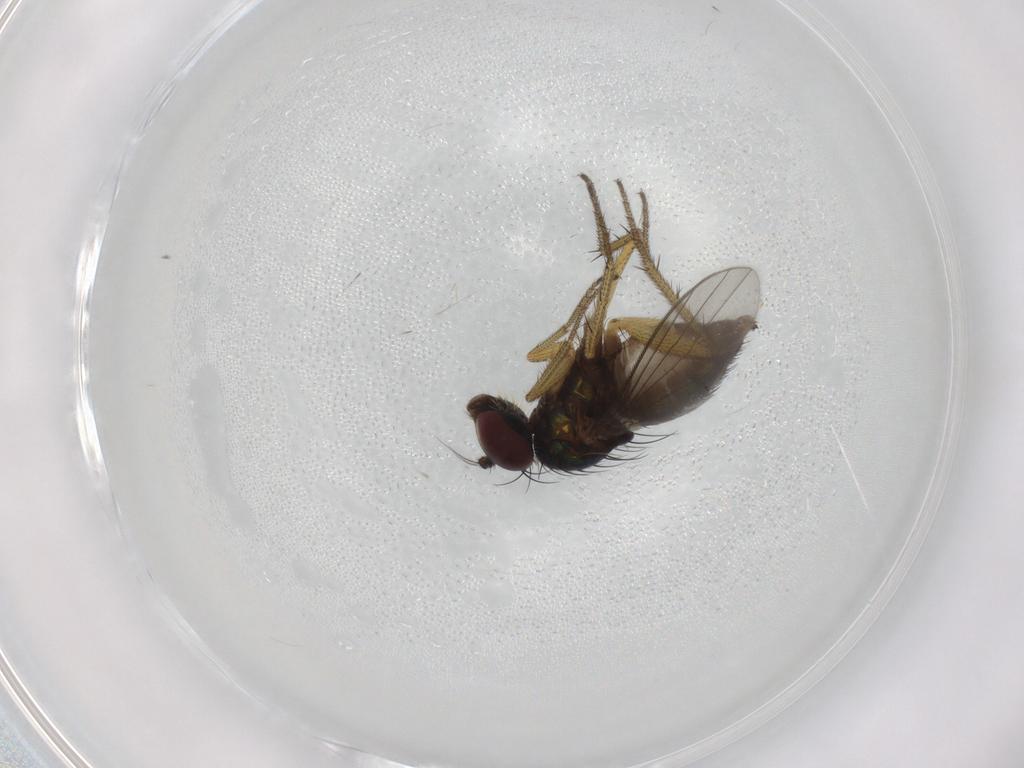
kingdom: Animalia
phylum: Arthropoda
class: Insecta
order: Diptera
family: Dolichopodidae
